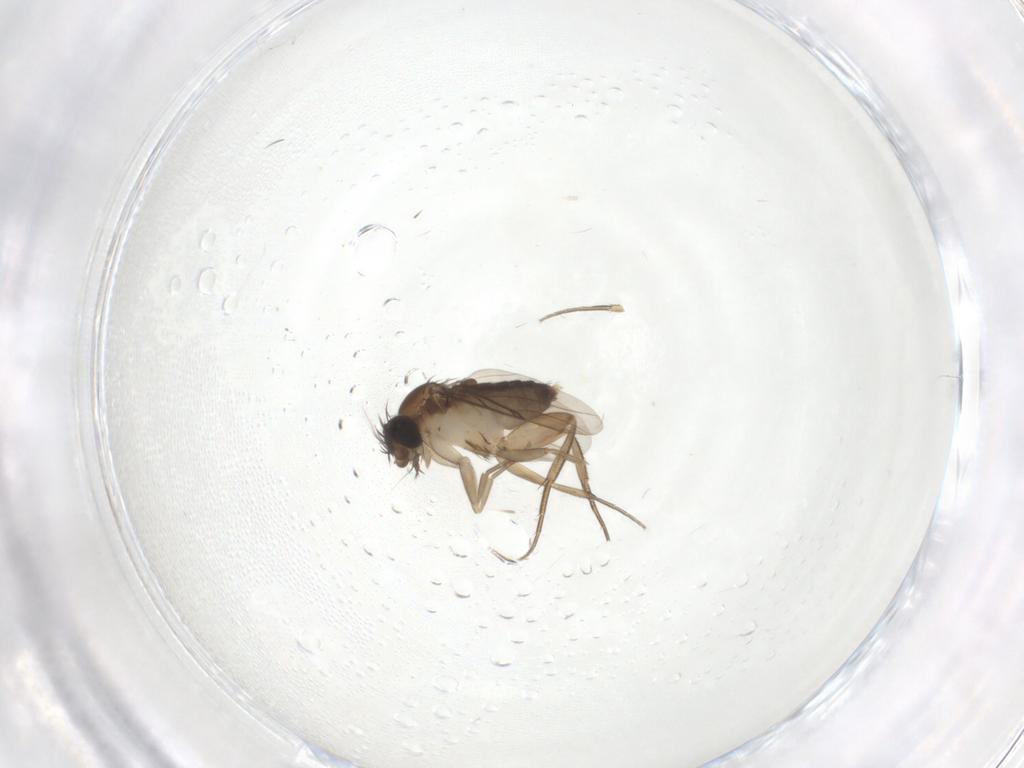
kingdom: Animalia
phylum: Arthropoda
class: Insecta
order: Diptera
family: Phoridae
